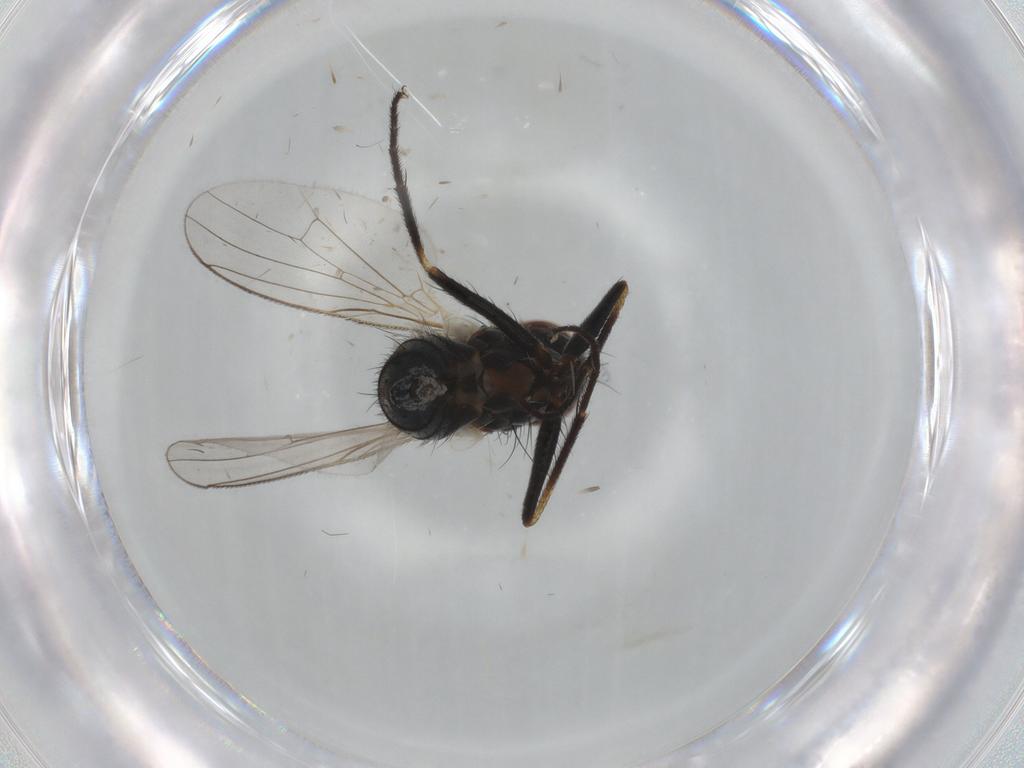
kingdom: Animalia
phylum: Arthropoda
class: Insecta
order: Diptera
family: Muscidae
